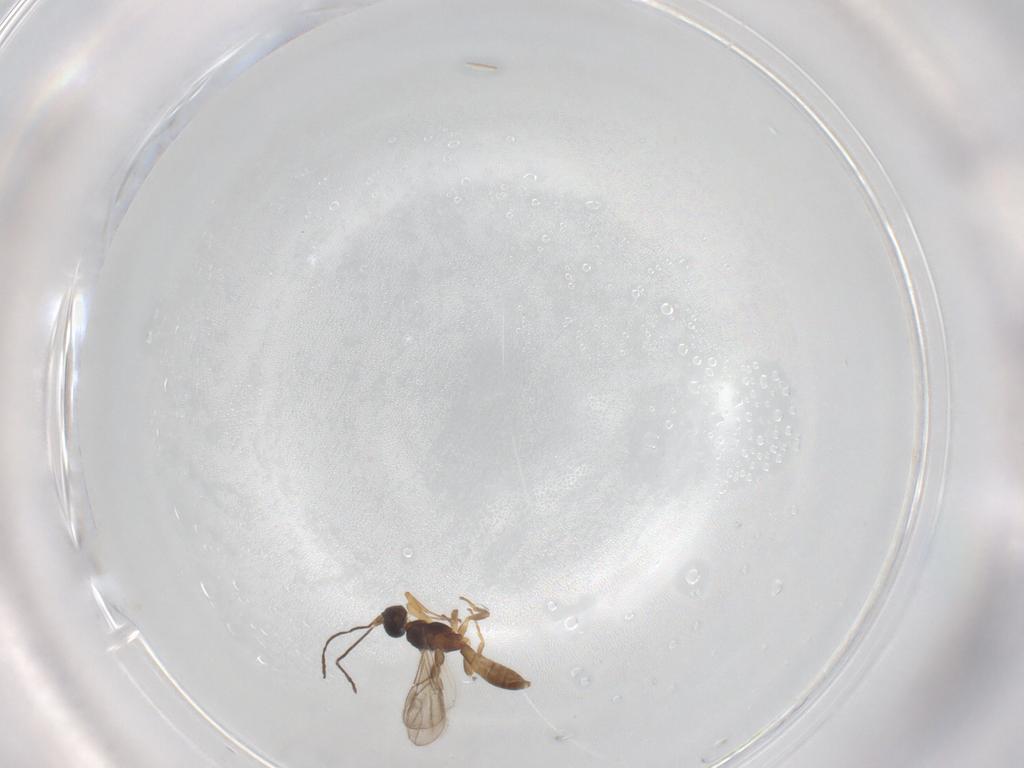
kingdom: Animalia
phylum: Arthropoda
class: Insecta
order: Hymenoptera
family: Braconidae
